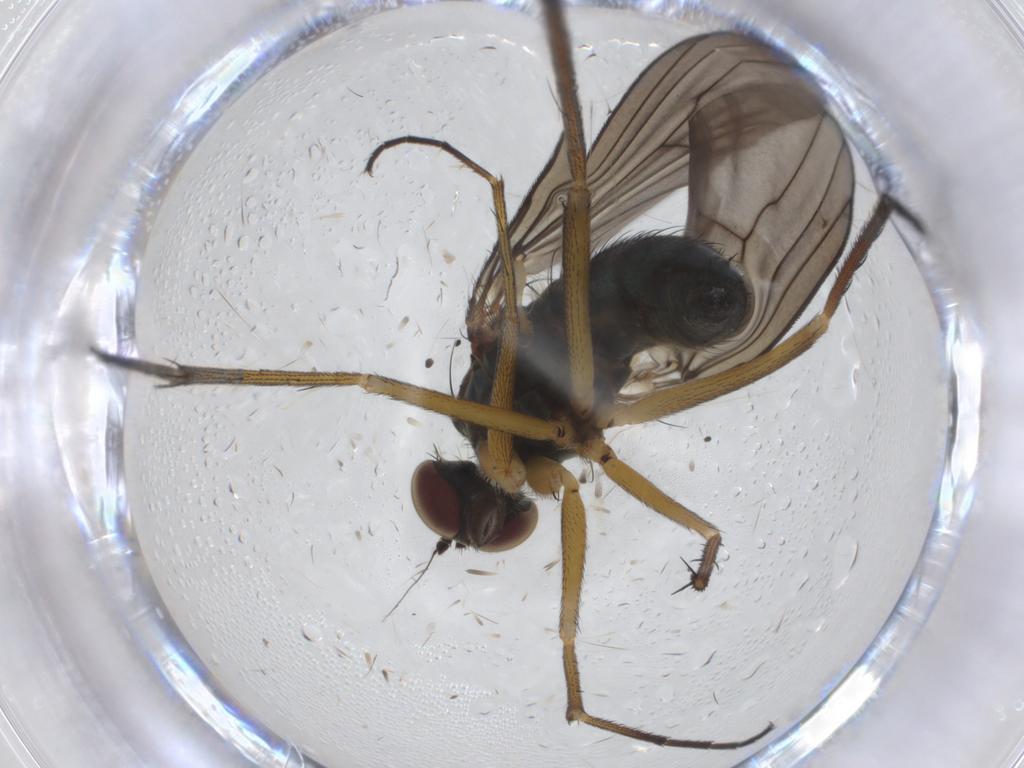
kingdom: Animalia
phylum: Arthropoda
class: Insecta
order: Diptera
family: Dolichopodidae
